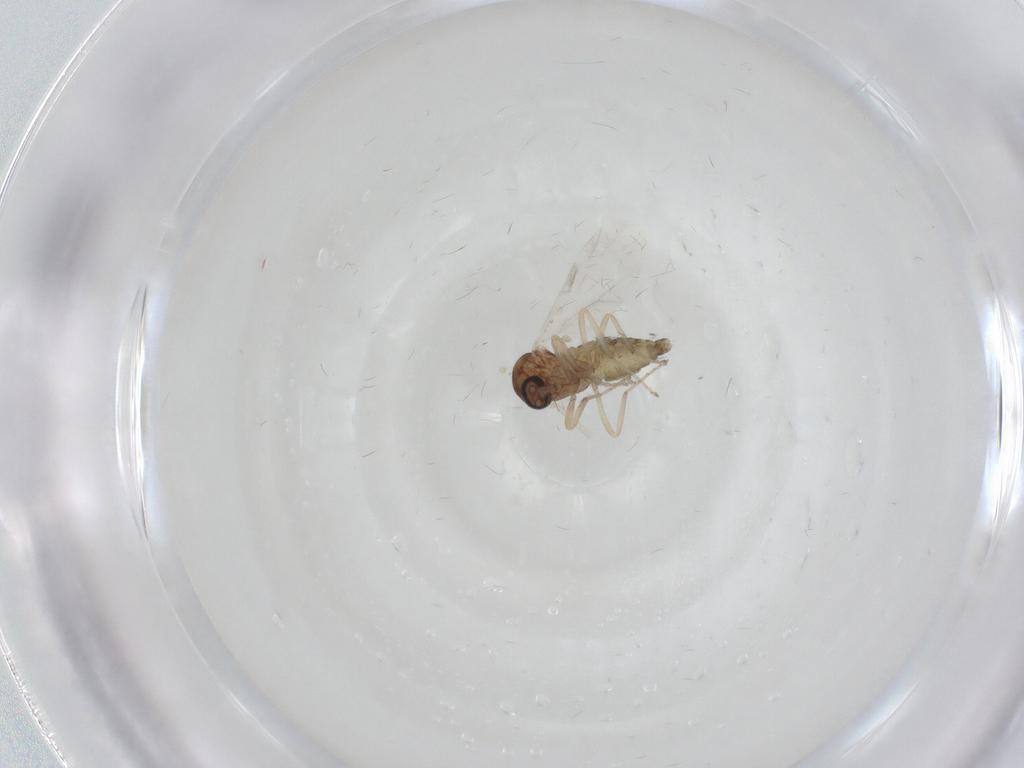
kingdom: Animalia
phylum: Arthropoda
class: Insecta
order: Diptera
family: Ceratopogonidae
